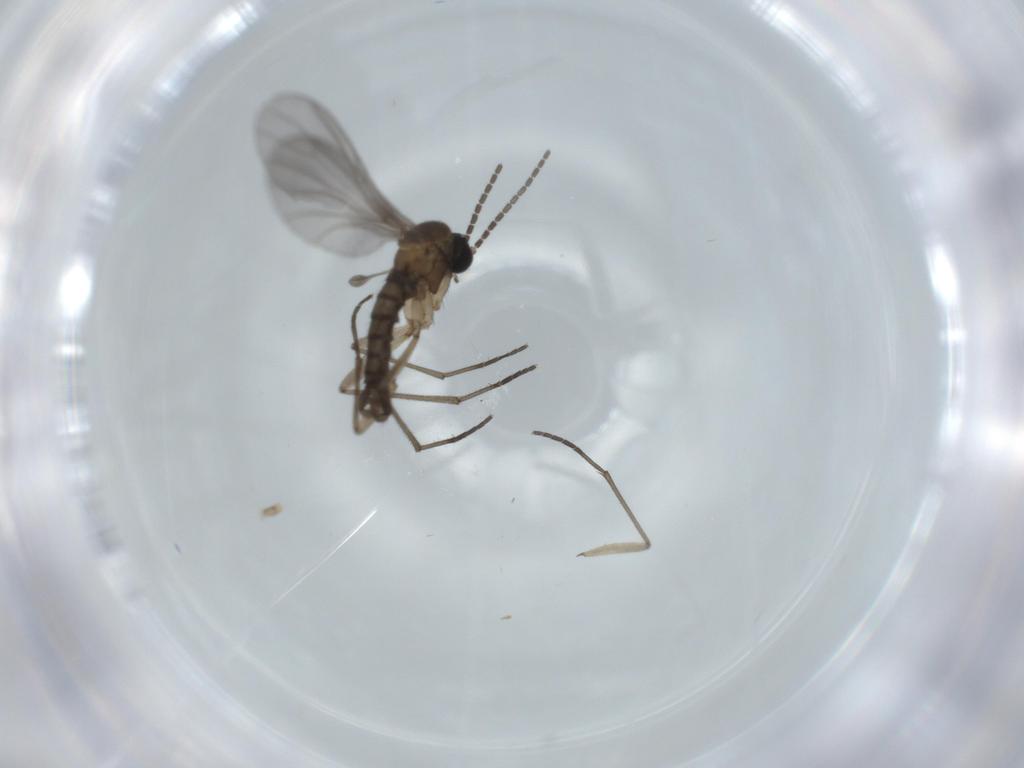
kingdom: Animalia
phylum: Arthropoda
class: Insecta
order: Diptera
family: Sciaridae
